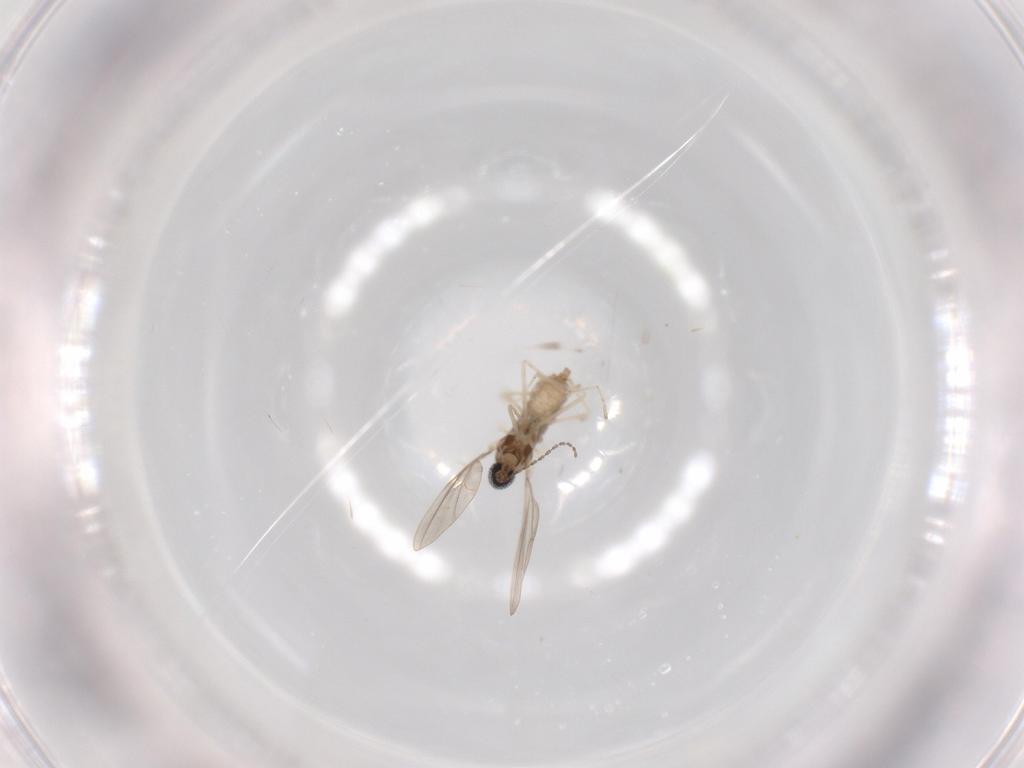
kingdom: Animalia
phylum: Arthropoda
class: Insecta
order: Diptera
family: Cecidomyiidae
